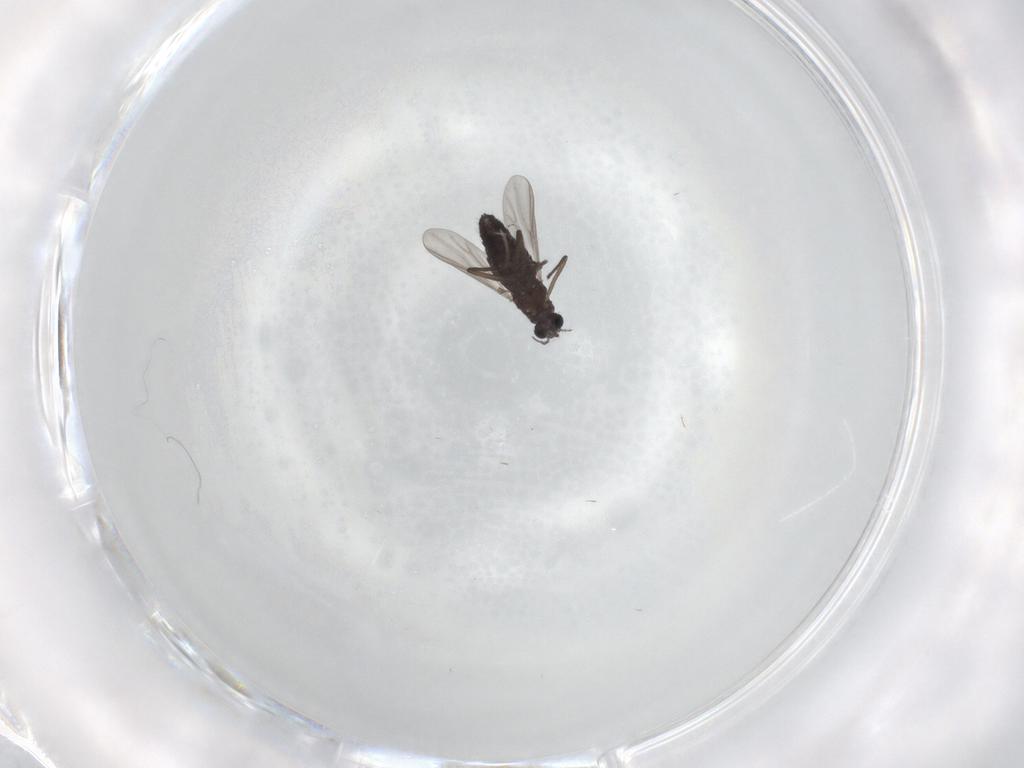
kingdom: Animalia
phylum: Arthropoda
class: Insecta
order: Diptera
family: Chironomidae
